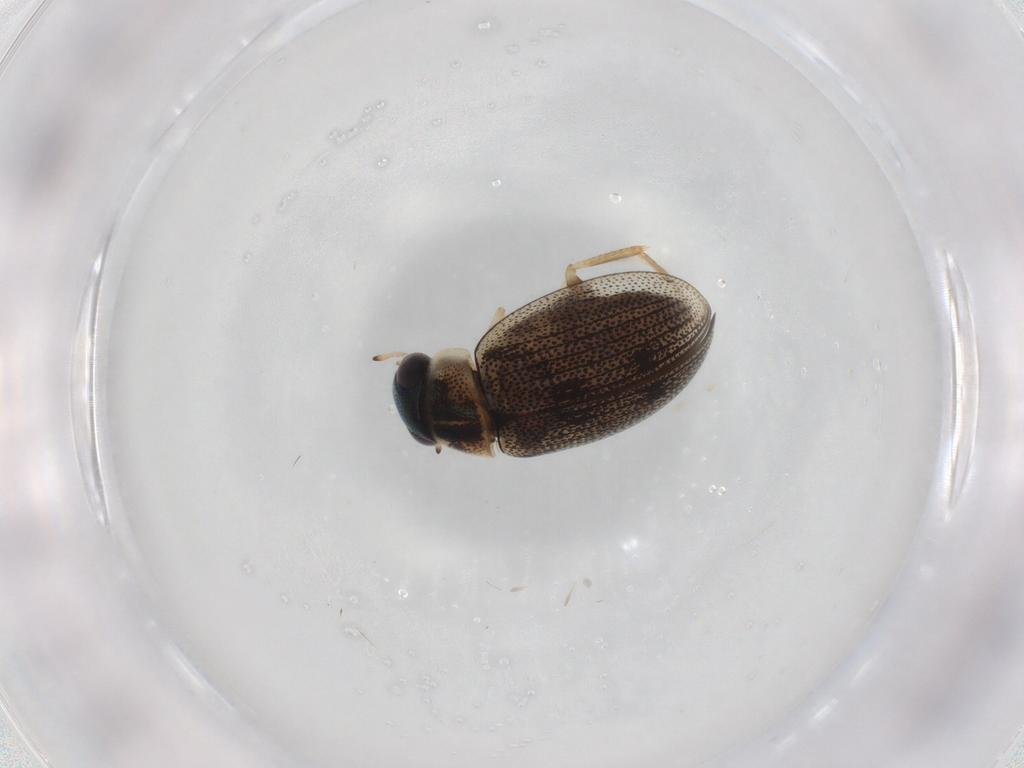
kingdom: Animalia
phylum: Arthropoda
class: Insecta
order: Coleoptera
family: Hydrophilidae
